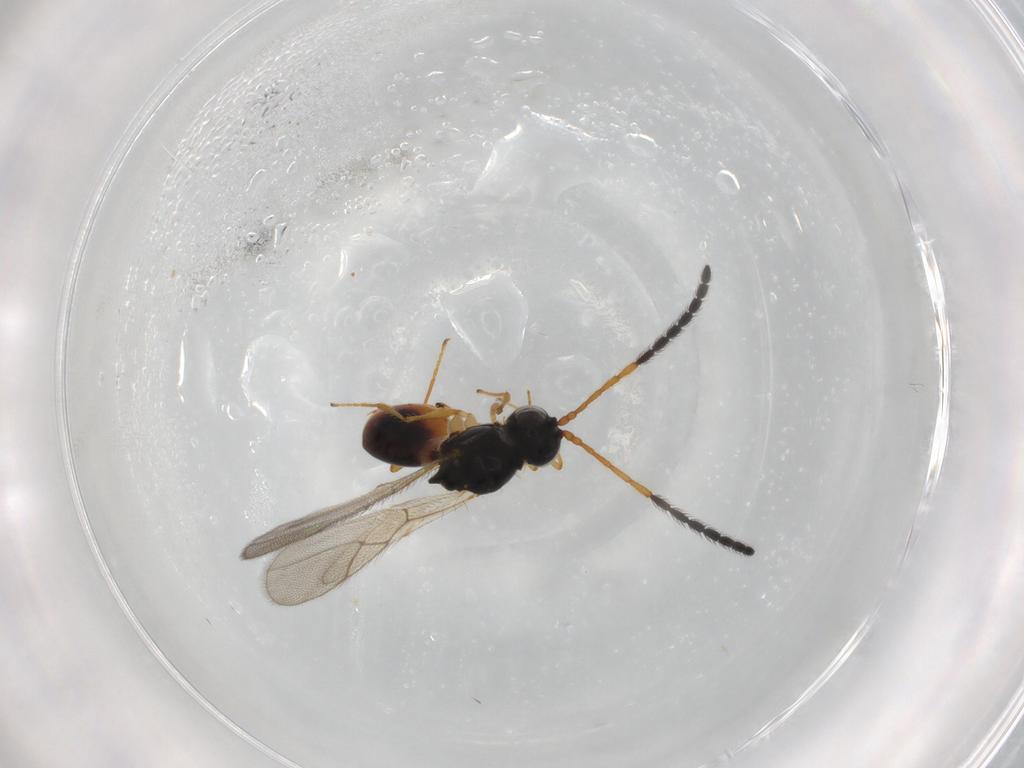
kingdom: Animalia
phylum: Arthropoda
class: Insecta
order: Hymenoptera
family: Figitidae
